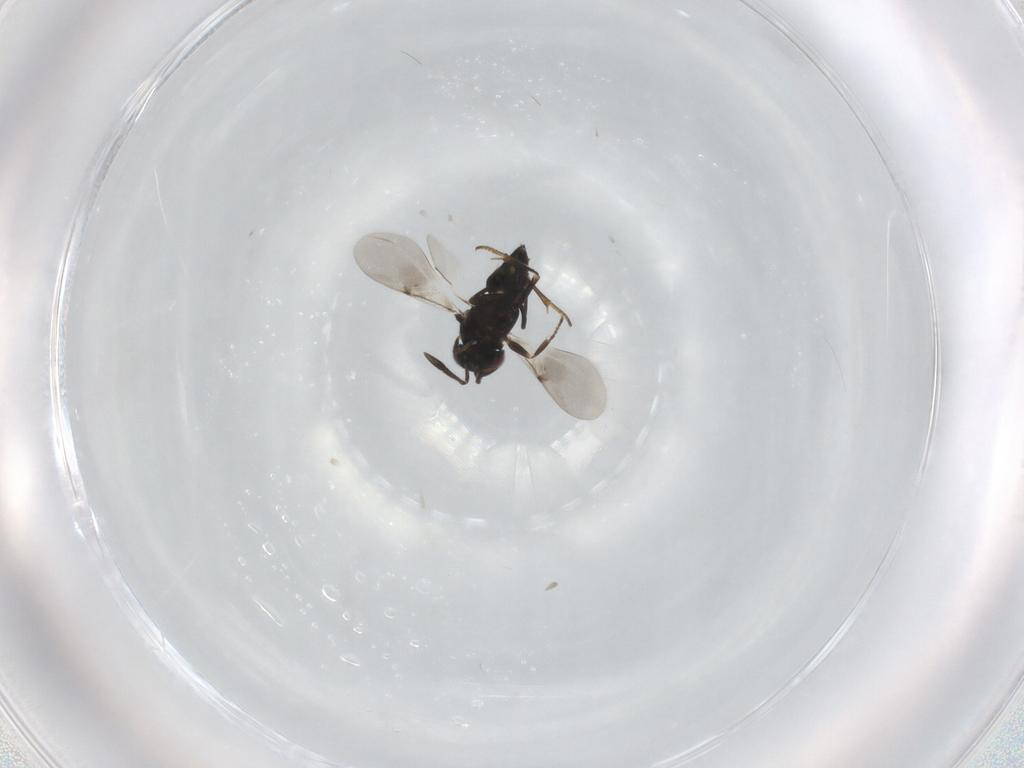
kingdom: Animalia
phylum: Arthropoda
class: Insecta
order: Hymenoptera
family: Encyrtidae
